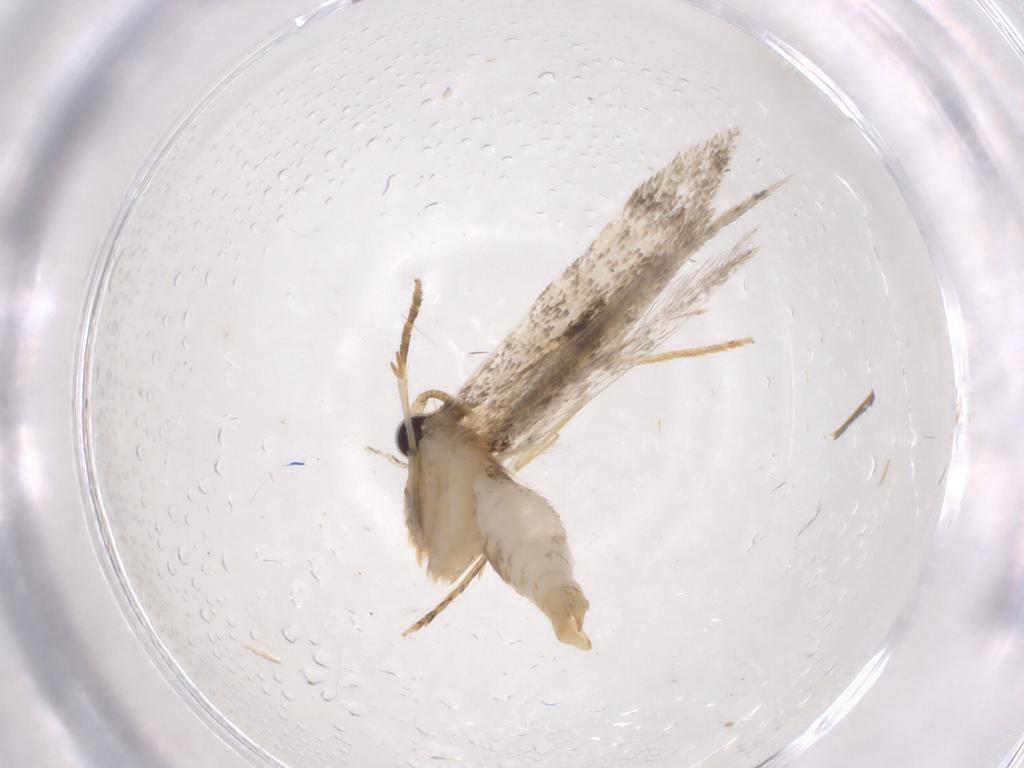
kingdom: Animalia
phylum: Arthropoda
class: Insecta
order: Lepidoptera
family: Tineidae
